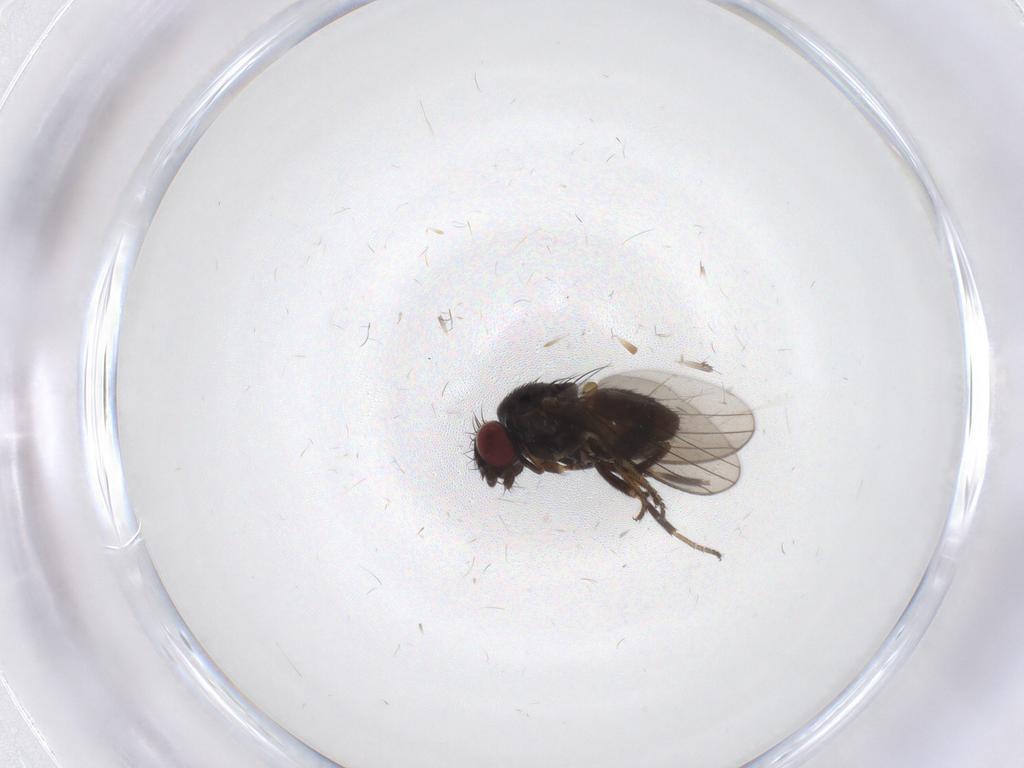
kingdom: Animalia
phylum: Arthropoda
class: Insecta
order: Diptera
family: Milichiidae
